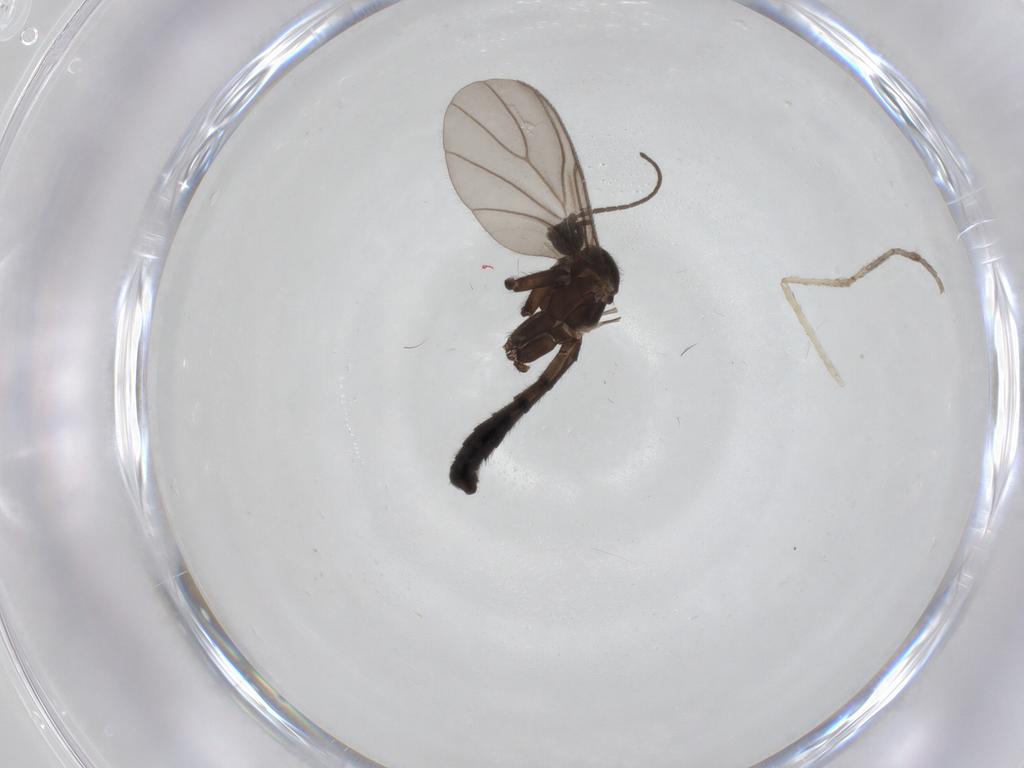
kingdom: Animalia
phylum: Arthropoda
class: Insecta
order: Diptera
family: Cecidomyiidae
